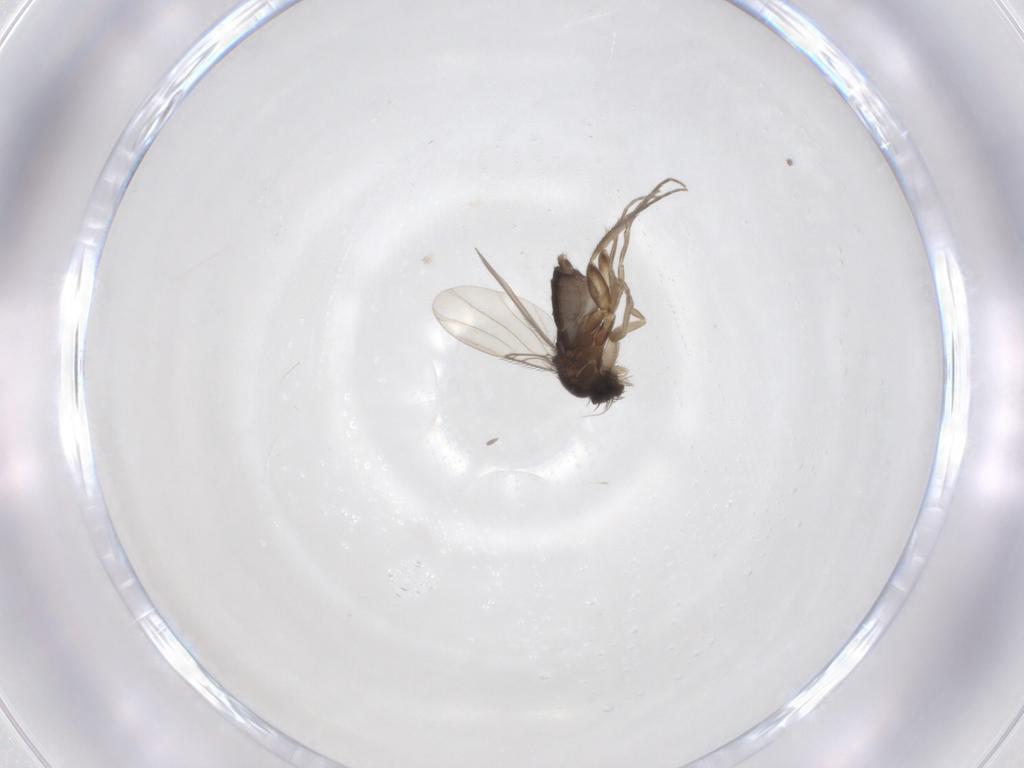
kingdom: Animalia
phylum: Arthropoda
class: Insecta
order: Diptera
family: Phoridae
